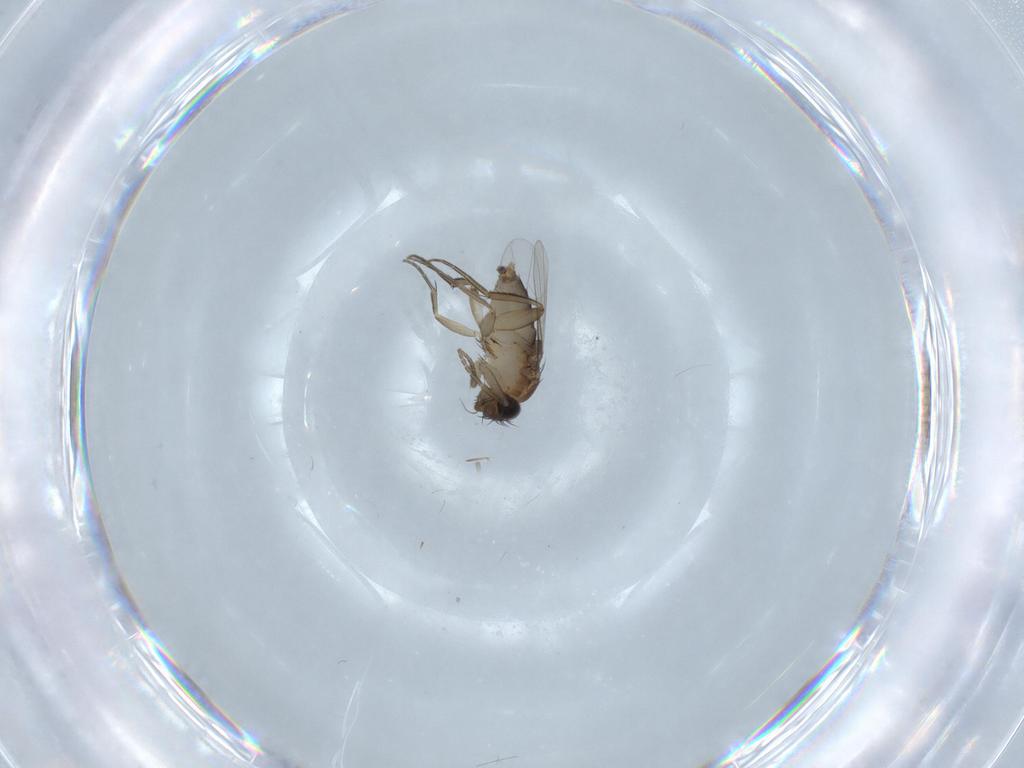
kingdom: Animalia
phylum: Arthropoda
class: Insecta
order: Diptera
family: Phoridae
